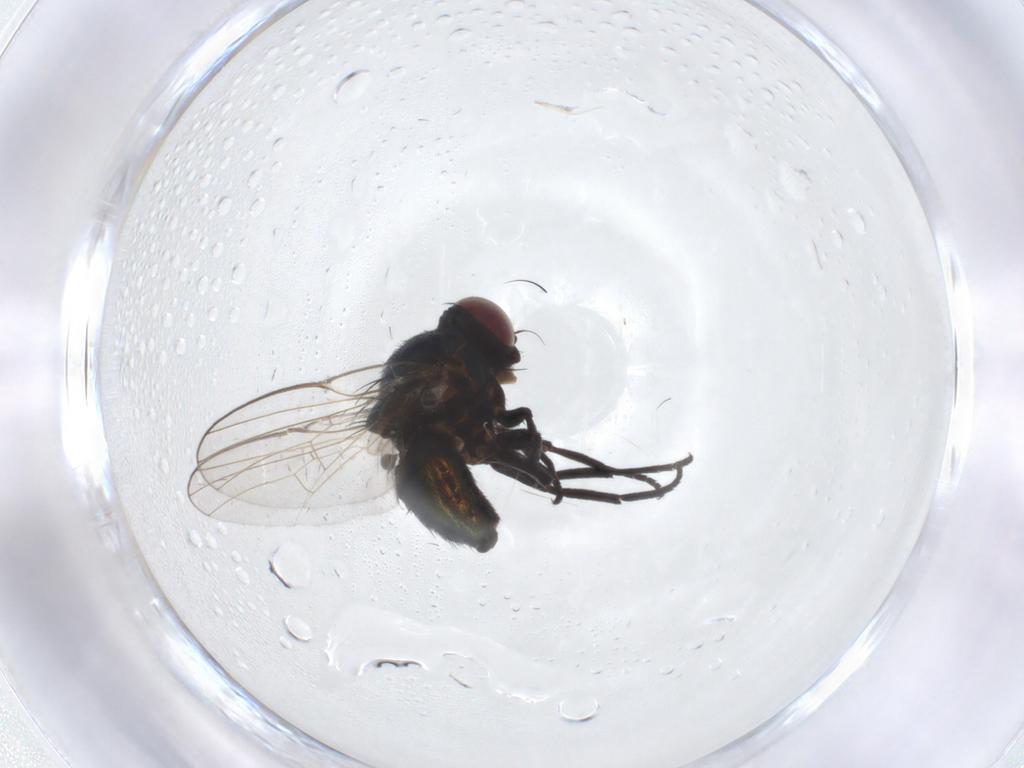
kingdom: Animalia
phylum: Arthropoda
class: Insecta
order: Diptera
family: Agromyzidae
